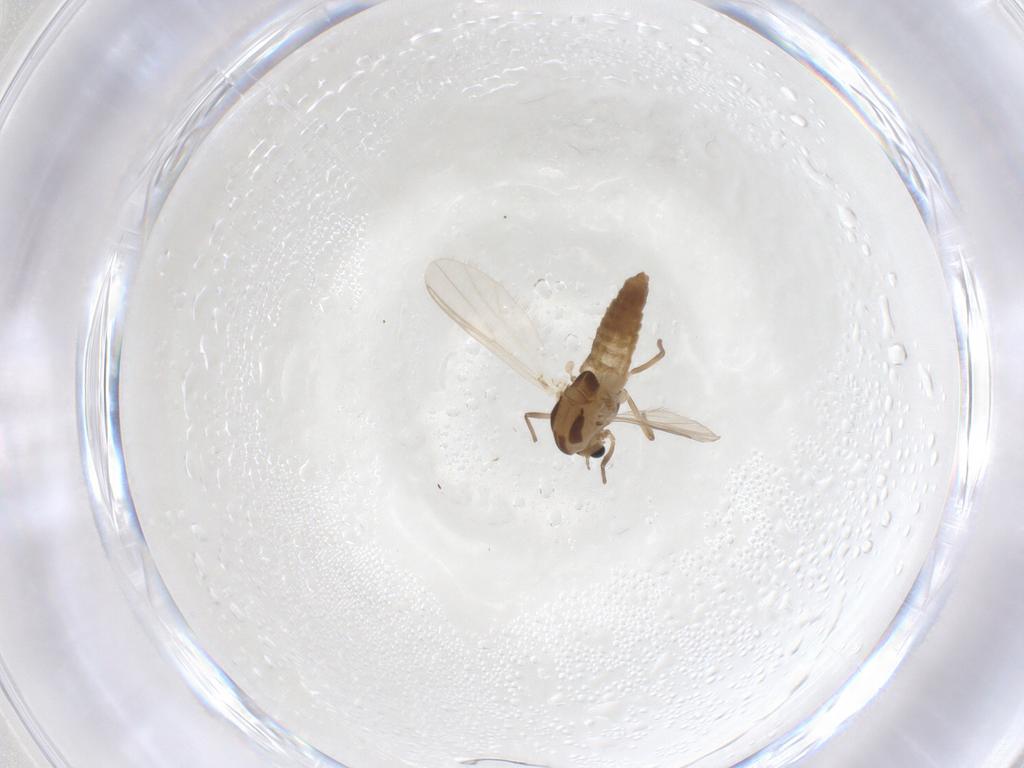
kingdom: Animalia
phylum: Arthropoda
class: Insecta
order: Diptera
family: Chironomidae
